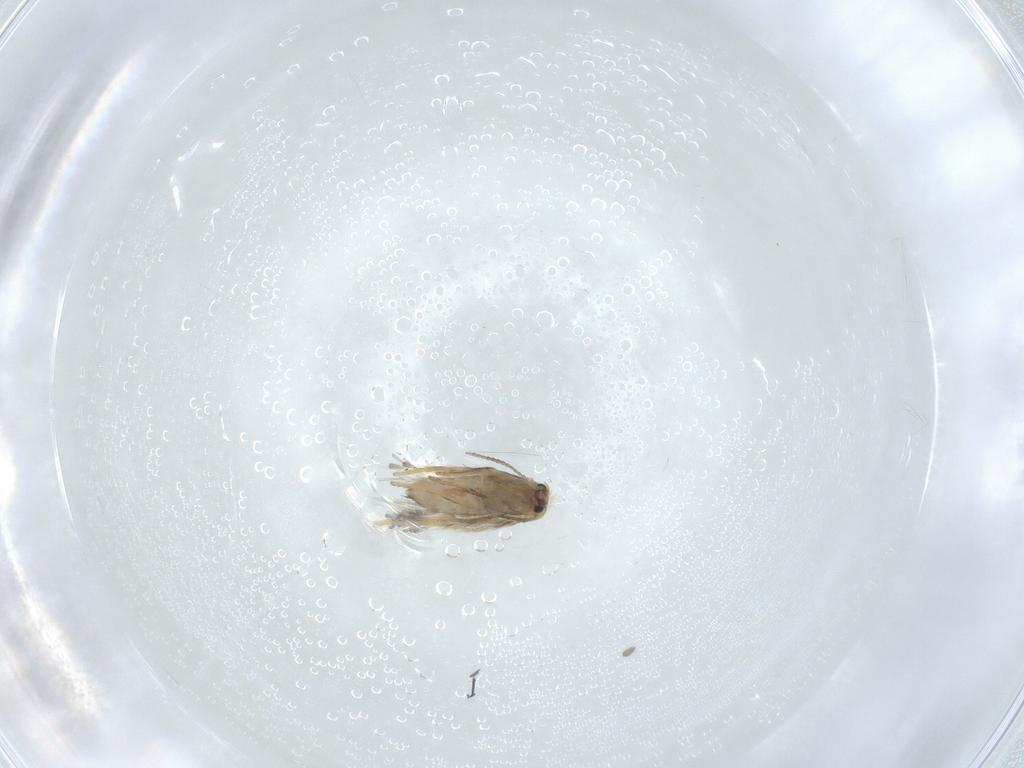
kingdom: Animalia
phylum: Arthropoda
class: Insecta
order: Lepidoptera
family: Nepticulidae
